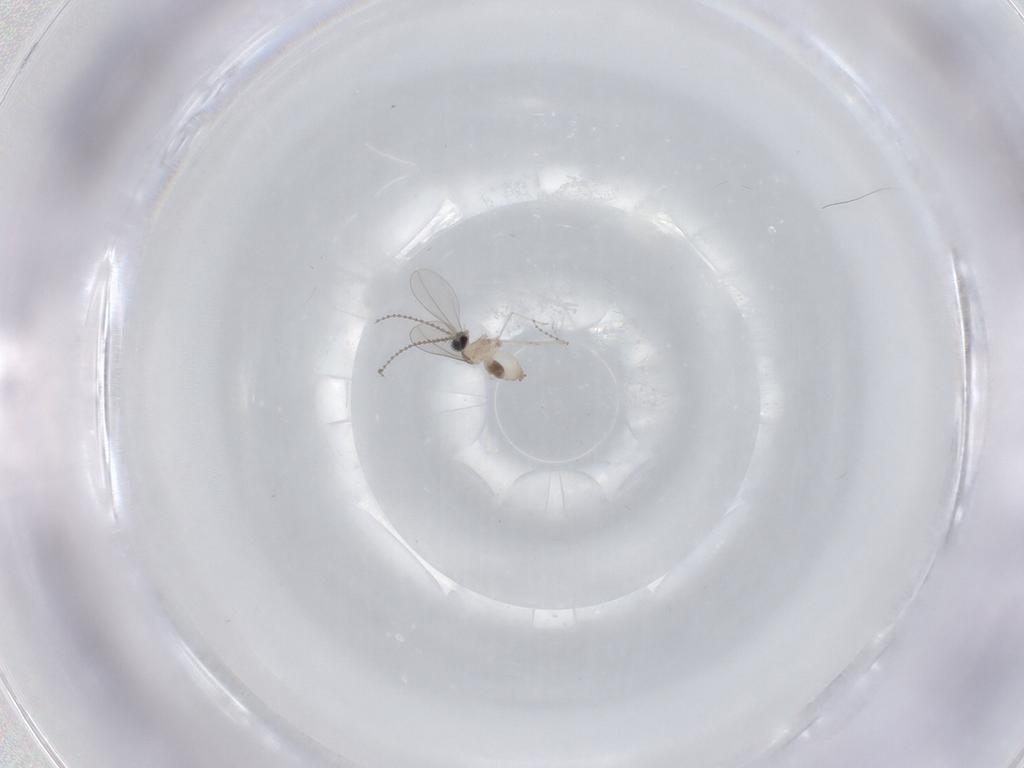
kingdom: Animalia
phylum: Arthropoda
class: Insecta
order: Diptera
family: Cecidomyiidae
